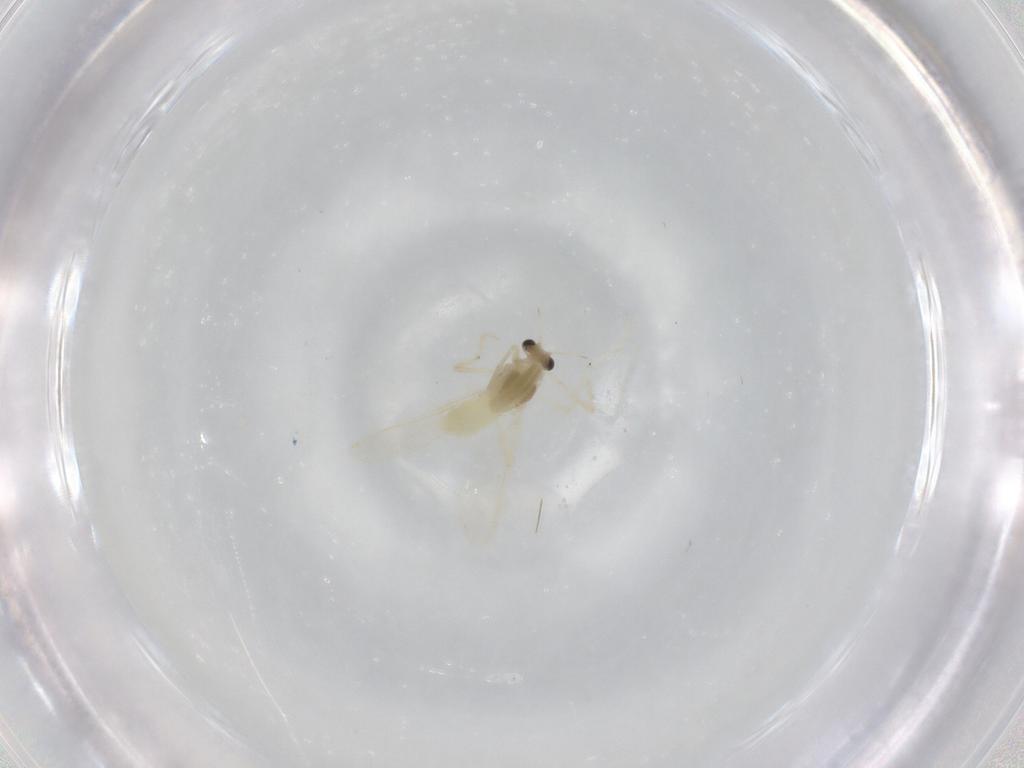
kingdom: Animalia
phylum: Arthropoda
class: Insecta
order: Diptera
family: Chironomidae
